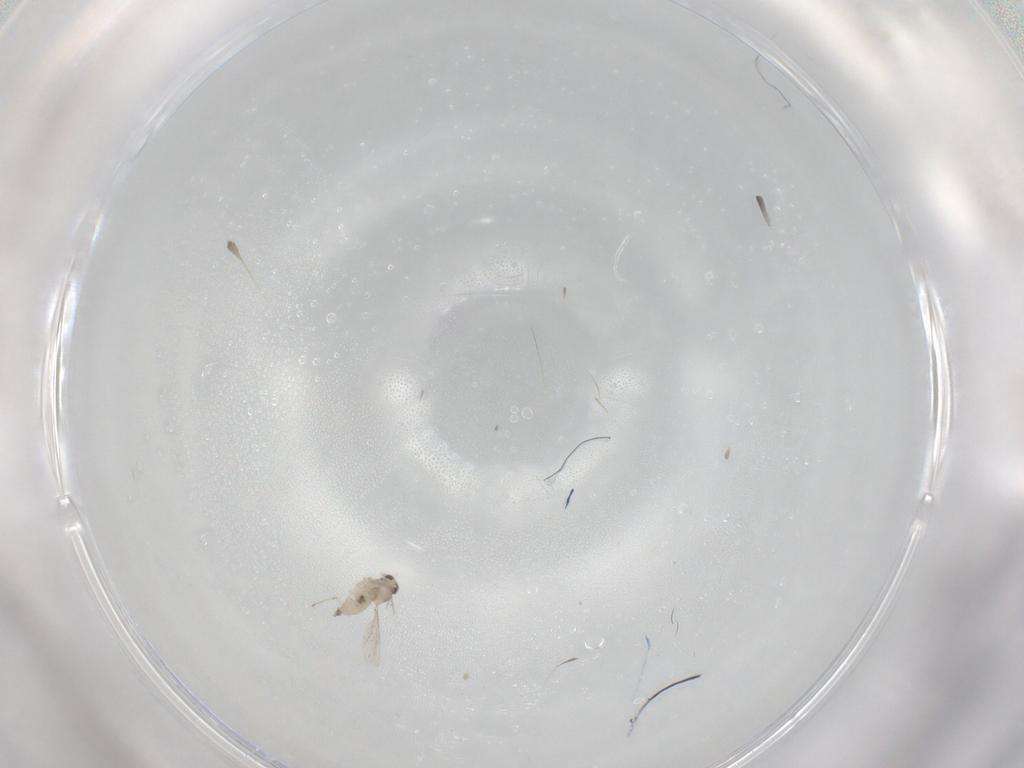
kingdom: Animalia
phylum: Arthropoda
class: Insecta
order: Diptera
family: Cecidomyiidae
